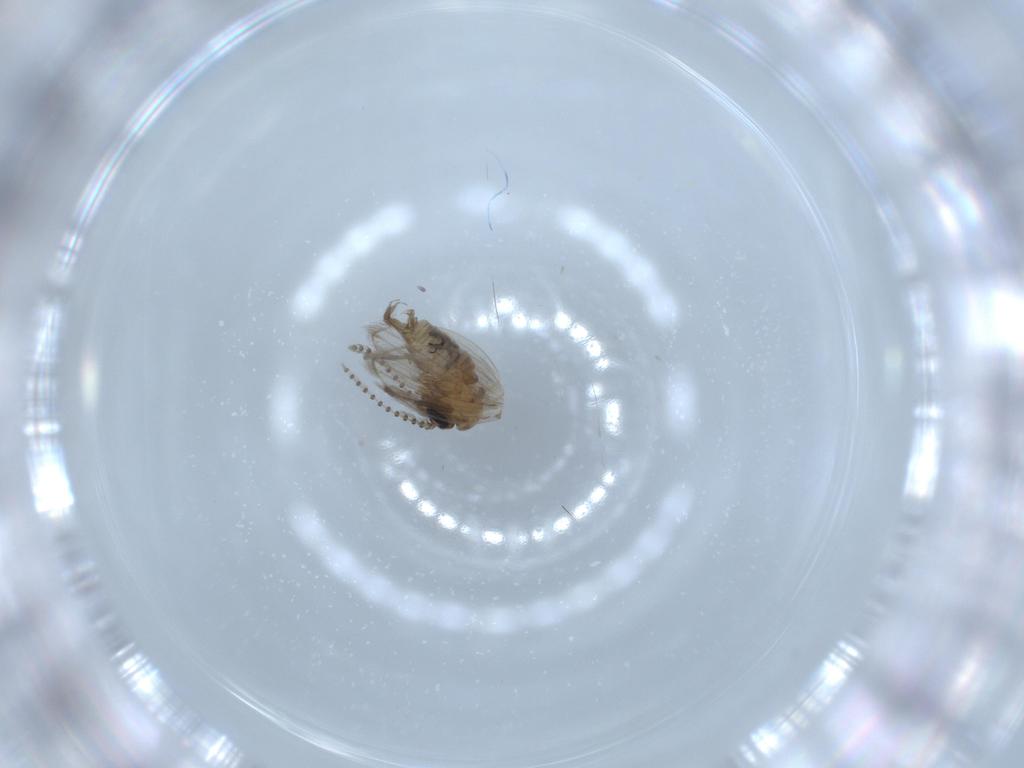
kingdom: Animalia
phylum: Arthropoda
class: Insecta
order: Diptera
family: Psychodidae
